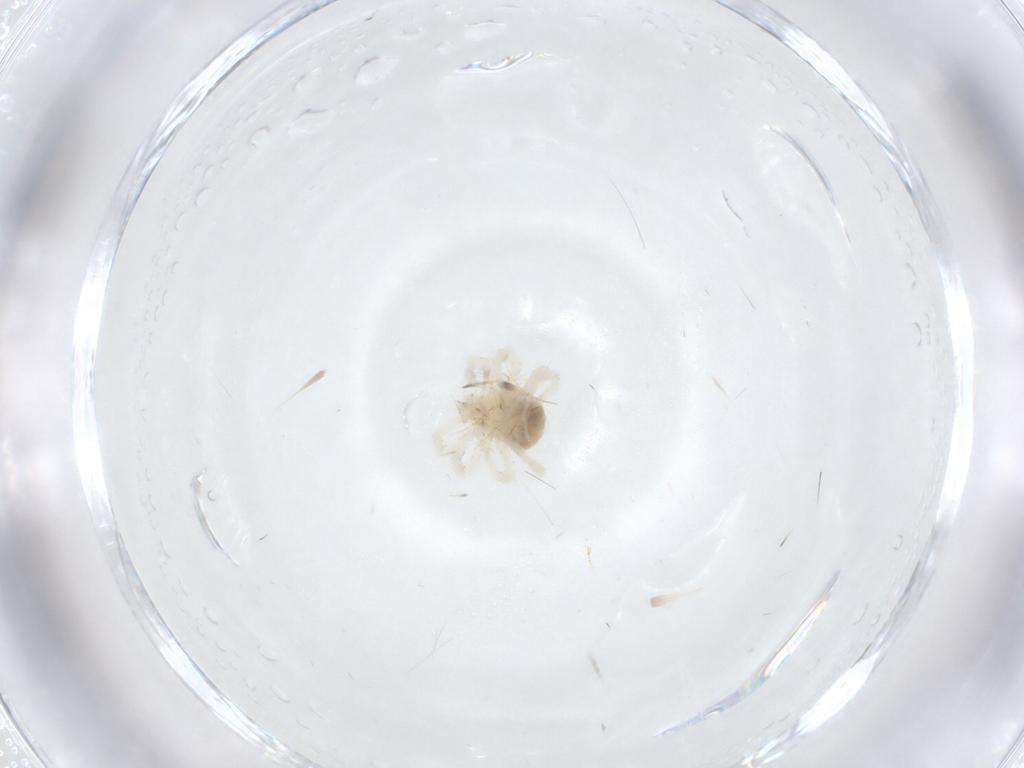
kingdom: Animalia
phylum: Arthropoda
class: Arachnida
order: Trombidiformes
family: Anystidae
